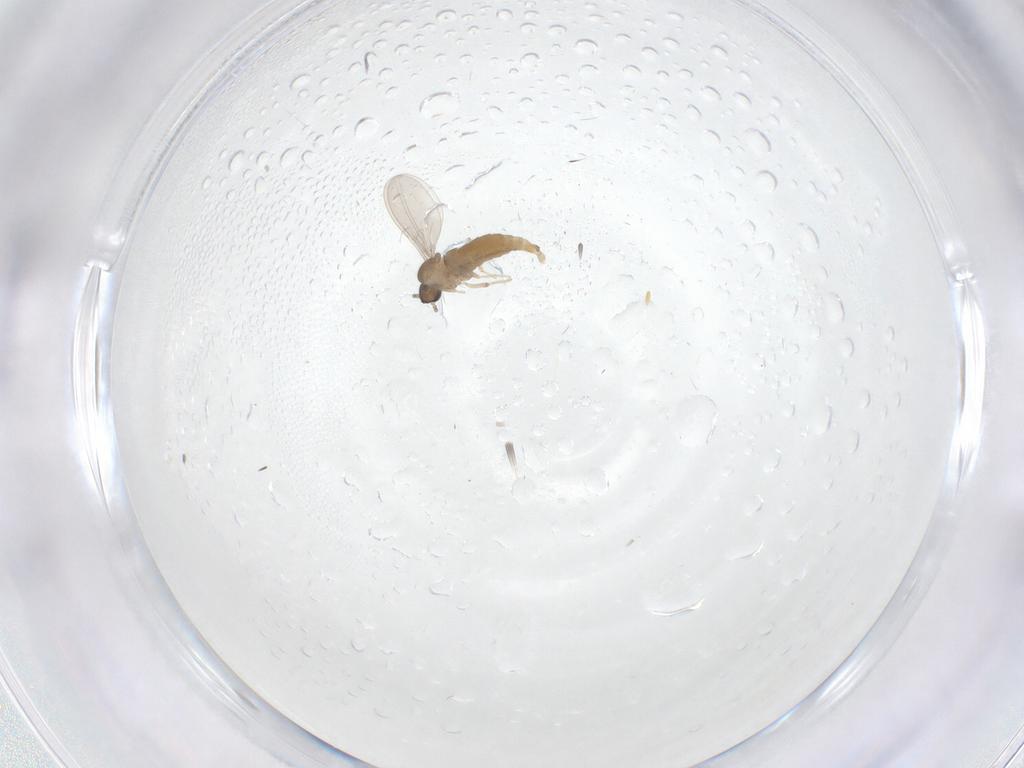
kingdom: Animalia
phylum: Arthropoda
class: Insecta
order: Diptera
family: Cecidomyiidae
